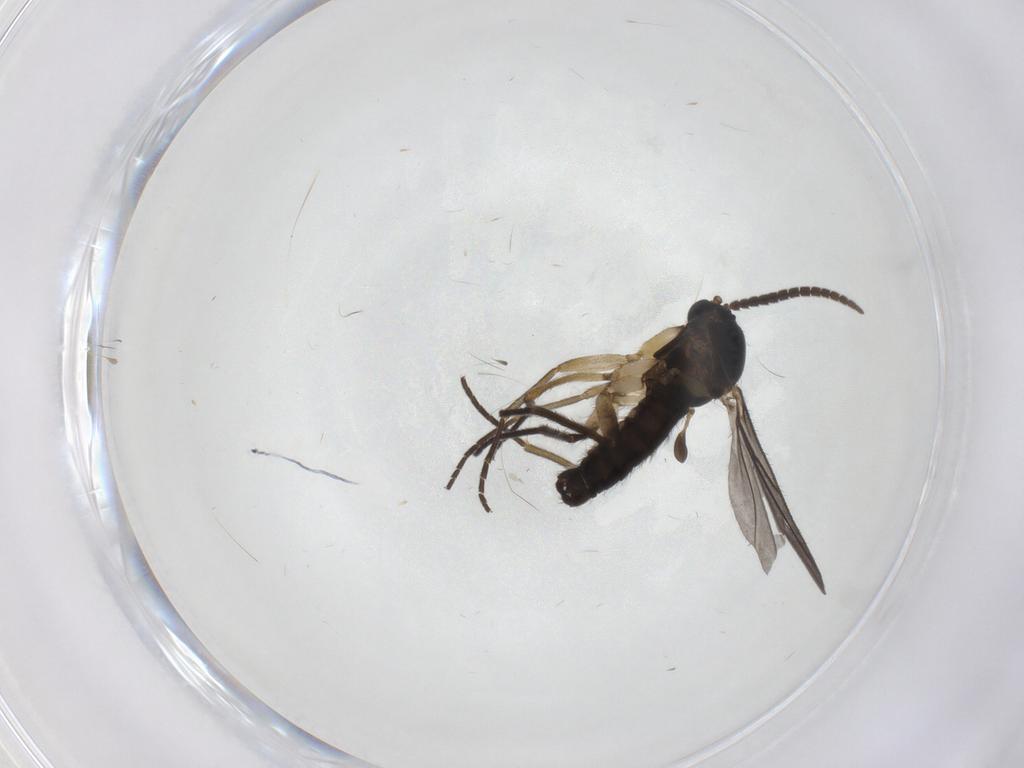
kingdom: Animalia
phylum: Arthropoda
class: Insecta
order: Diptera
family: Sciaridae
